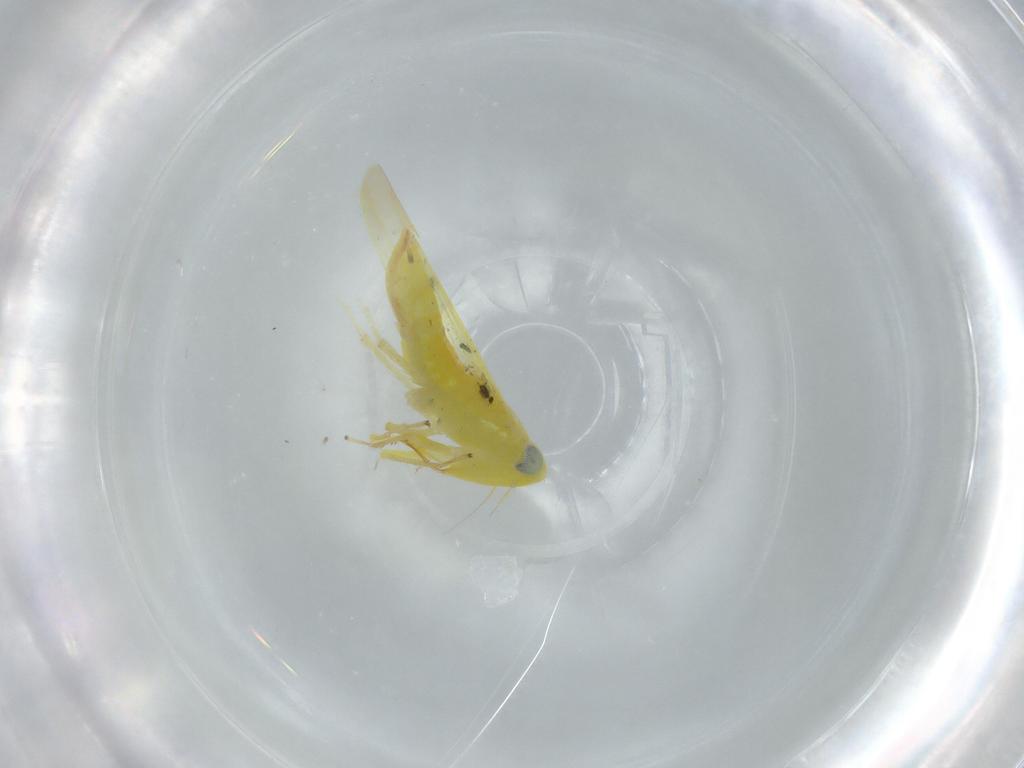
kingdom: Animalia
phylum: Arthropoda
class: Insecta
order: Hemiptera
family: Cicadellidae
